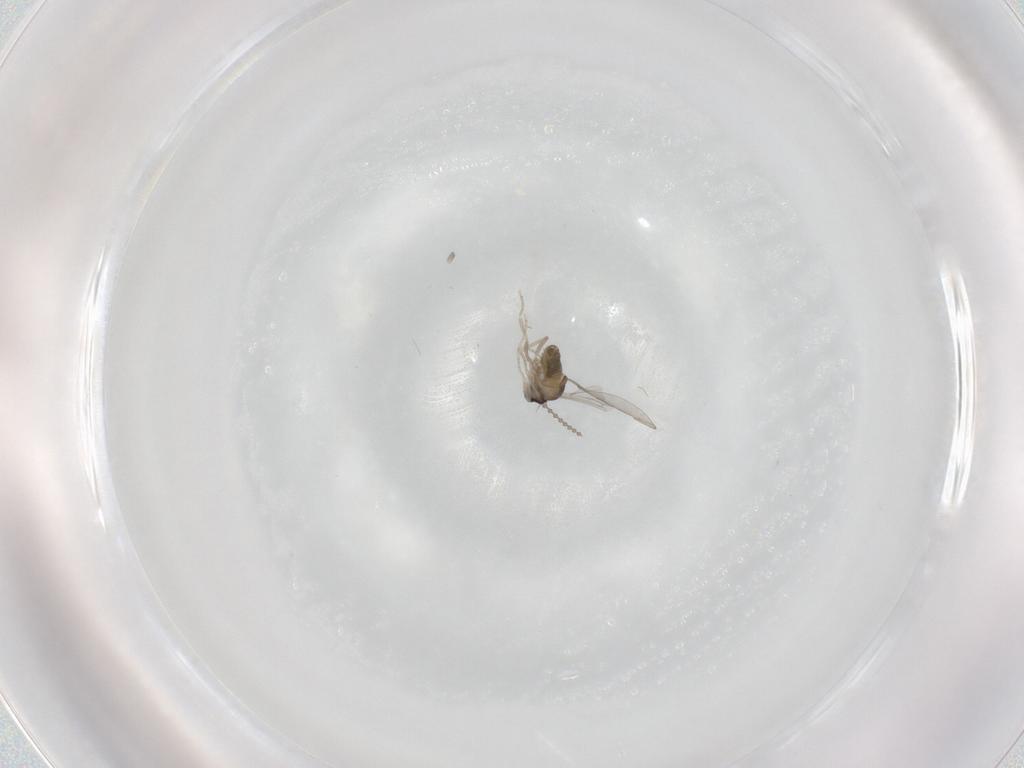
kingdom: Animalia
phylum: Arthropoda
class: Insecta
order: Diptera
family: Cecidomyiidae
